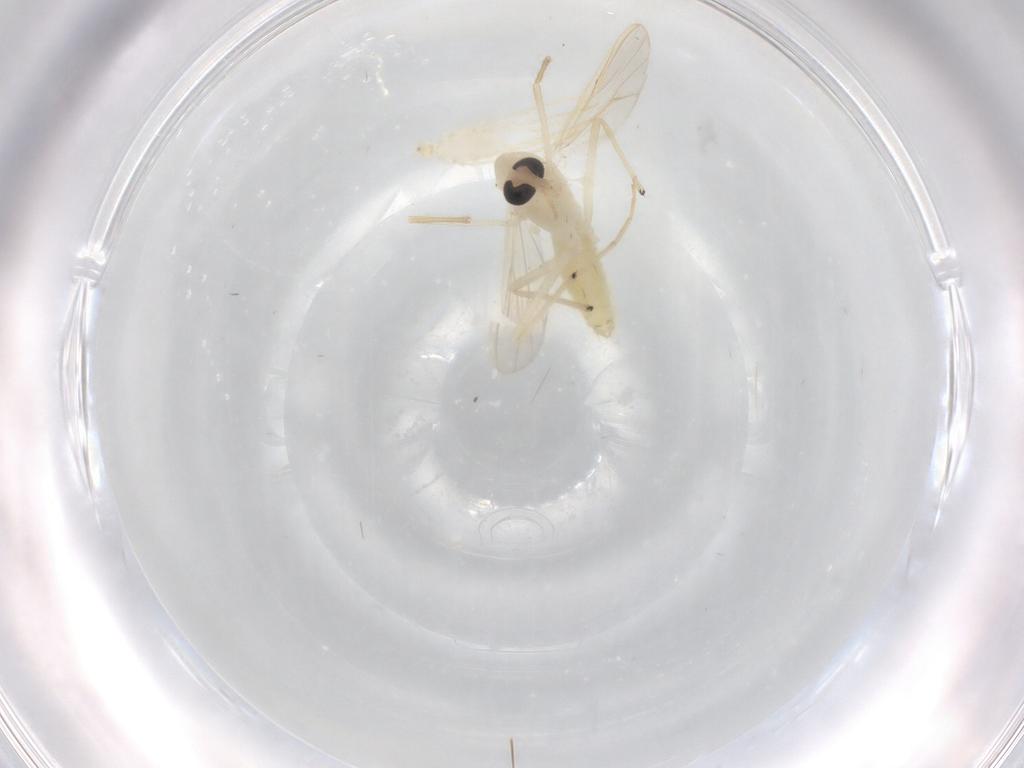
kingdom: Animalia
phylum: Arthropoda
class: Insecta
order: Diptera
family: Chironomidae
